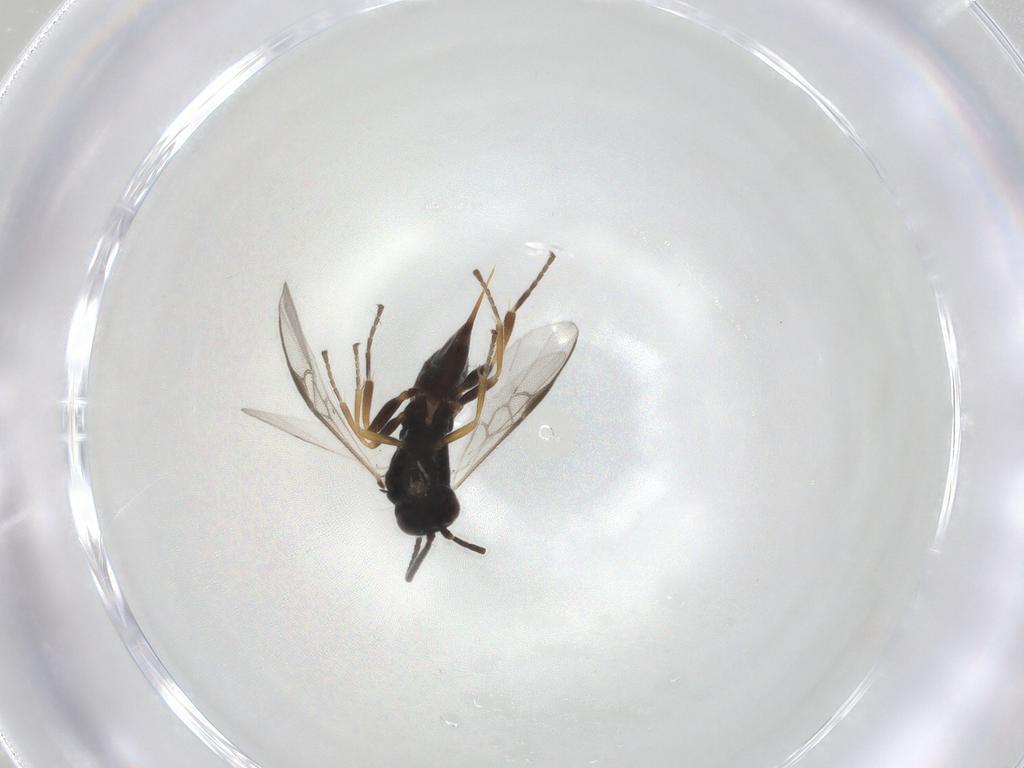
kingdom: Animalia
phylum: Arthropoda
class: Insecta
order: Hymenoptera
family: Braconidae
